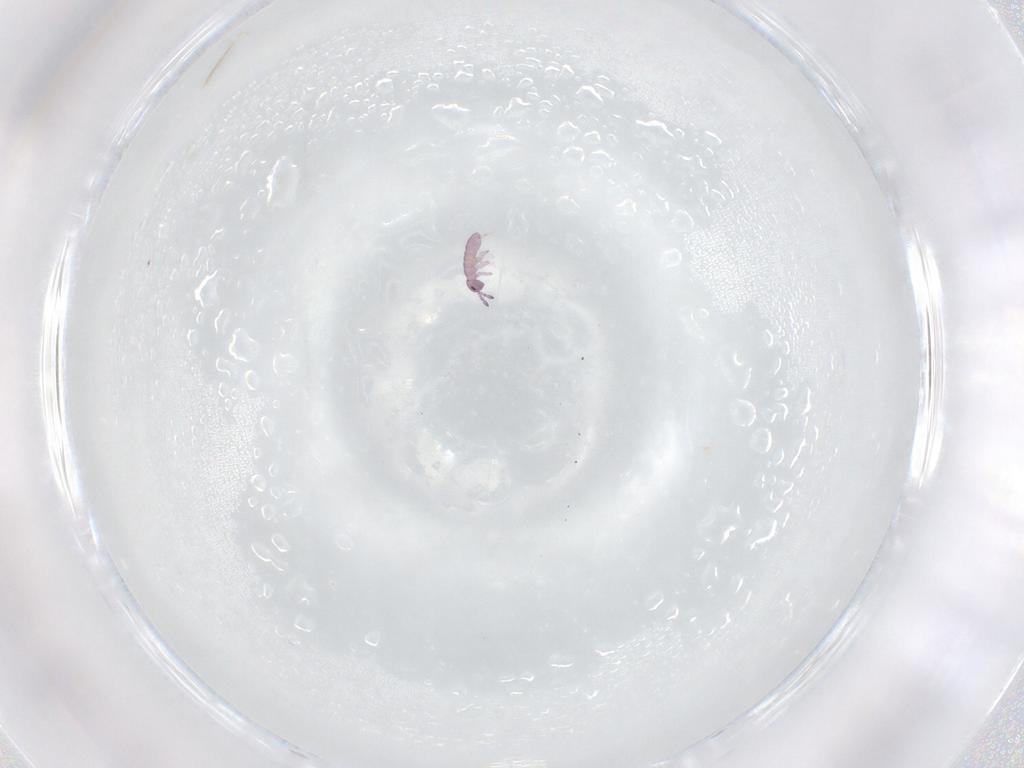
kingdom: Animalia
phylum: Arthropoda
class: Collembola
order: Entomobryomorpha
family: Isotomidae
